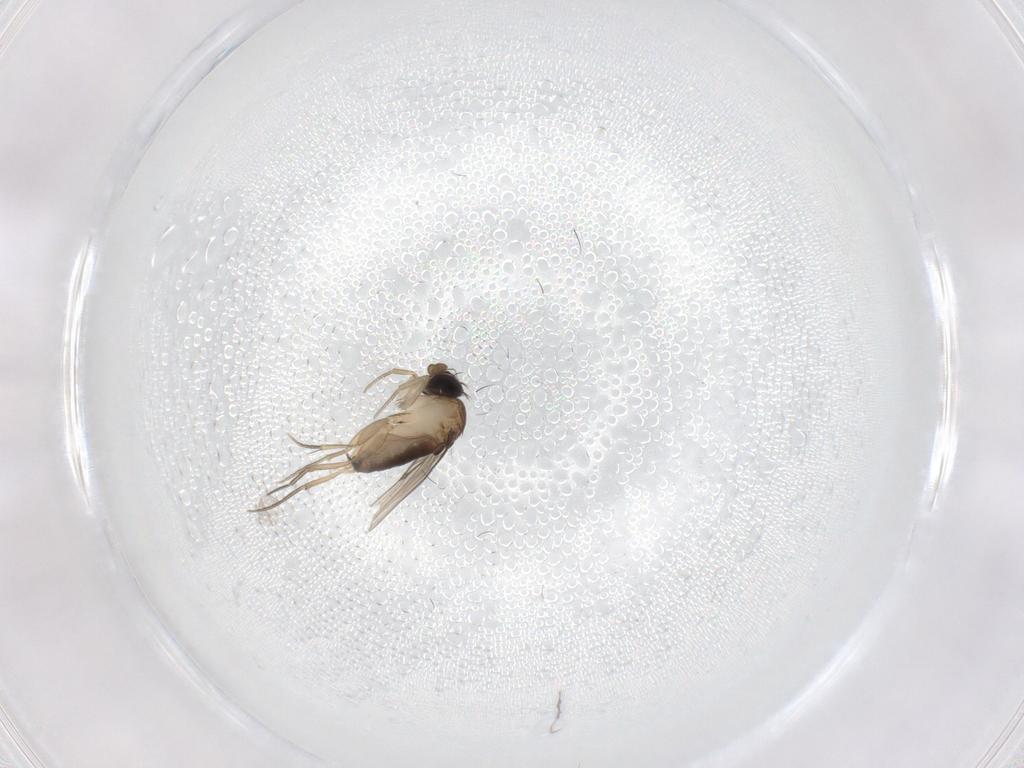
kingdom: Animalia
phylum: Arthropoda
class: Insecta
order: Diptera
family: Phoridae
